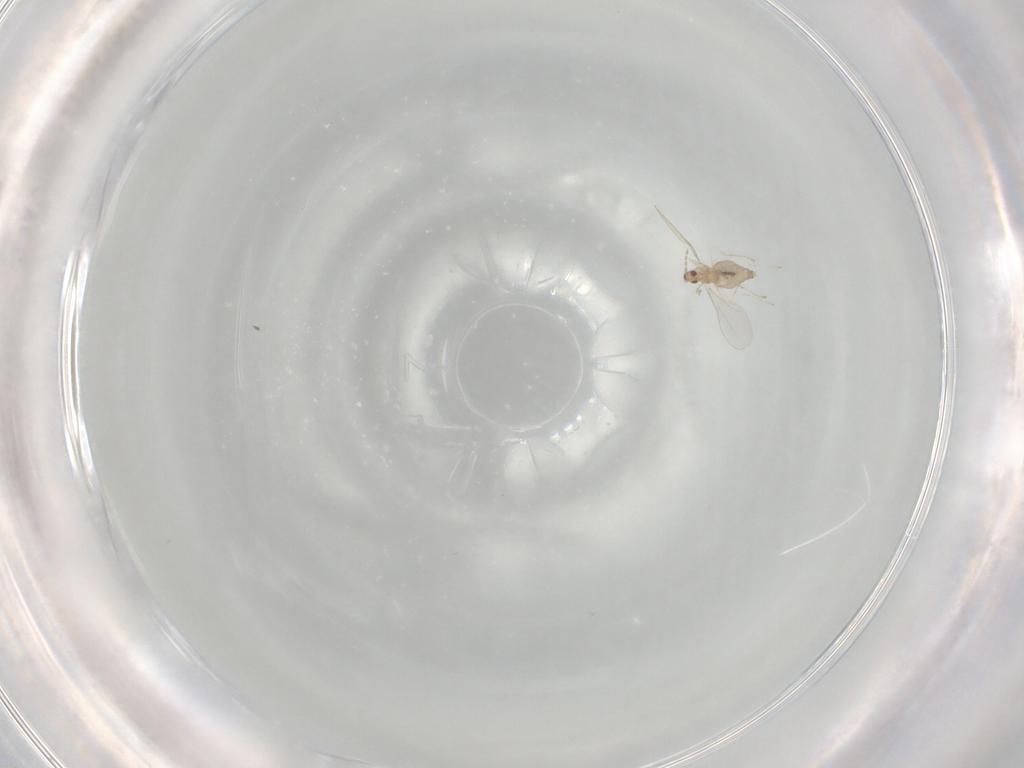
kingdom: Animalia
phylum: Arthropoda
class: Insecta
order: Diptera
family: Cecidomyiidae
